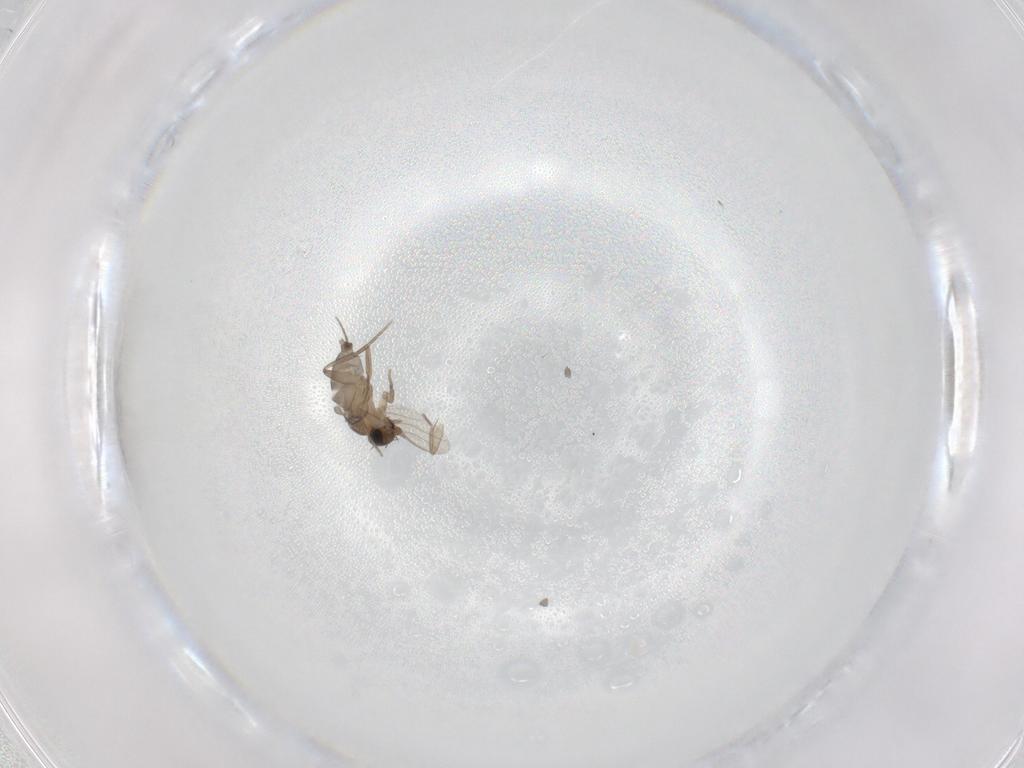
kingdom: Animalia
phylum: Arthropoda
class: Insecta
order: Diptera
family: Phoridae
